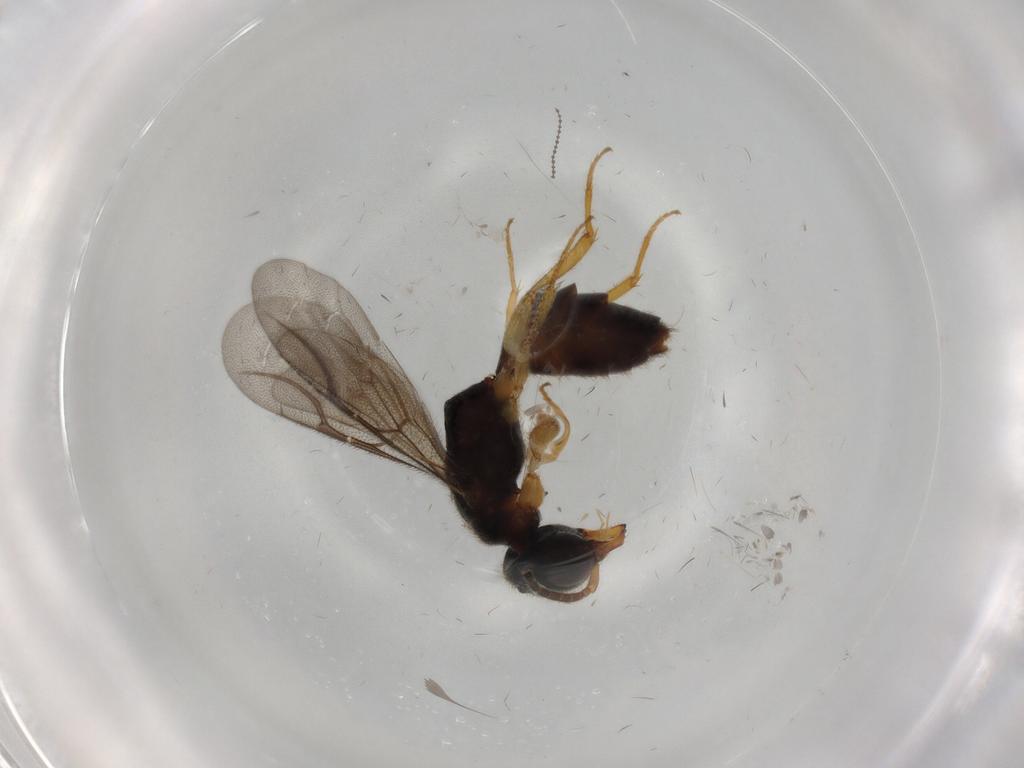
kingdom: Animalia
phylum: Arthropoda
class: Insecta
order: Hymenoptera
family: Bethylidae
